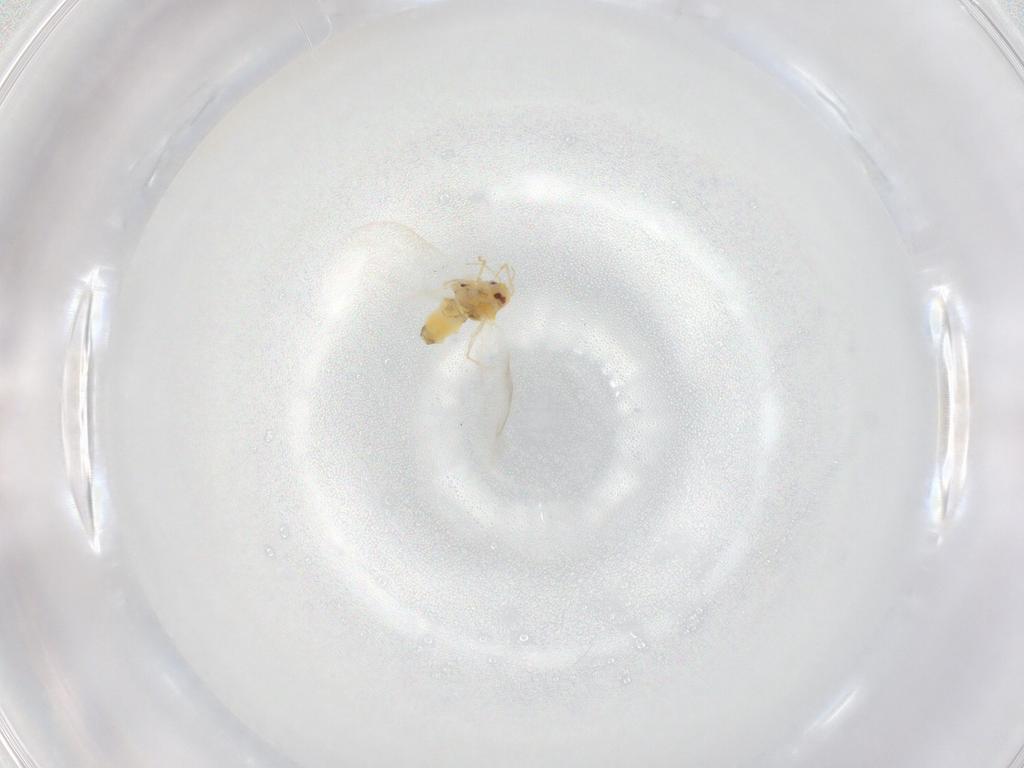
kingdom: Animalia
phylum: Arthropoda
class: Insecta
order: Hemiptera
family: Aleyrodidae
